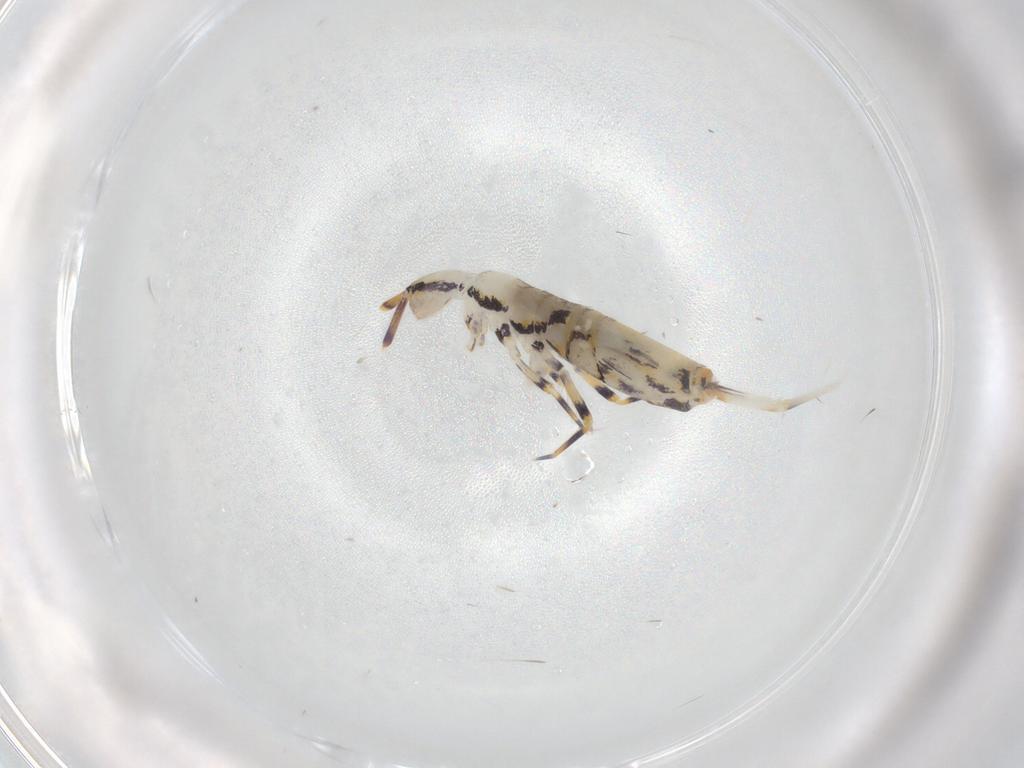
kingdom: Animalia
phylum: Arthropoda
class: Collembola
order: Entomobryomorpha
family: Entomobryidae
